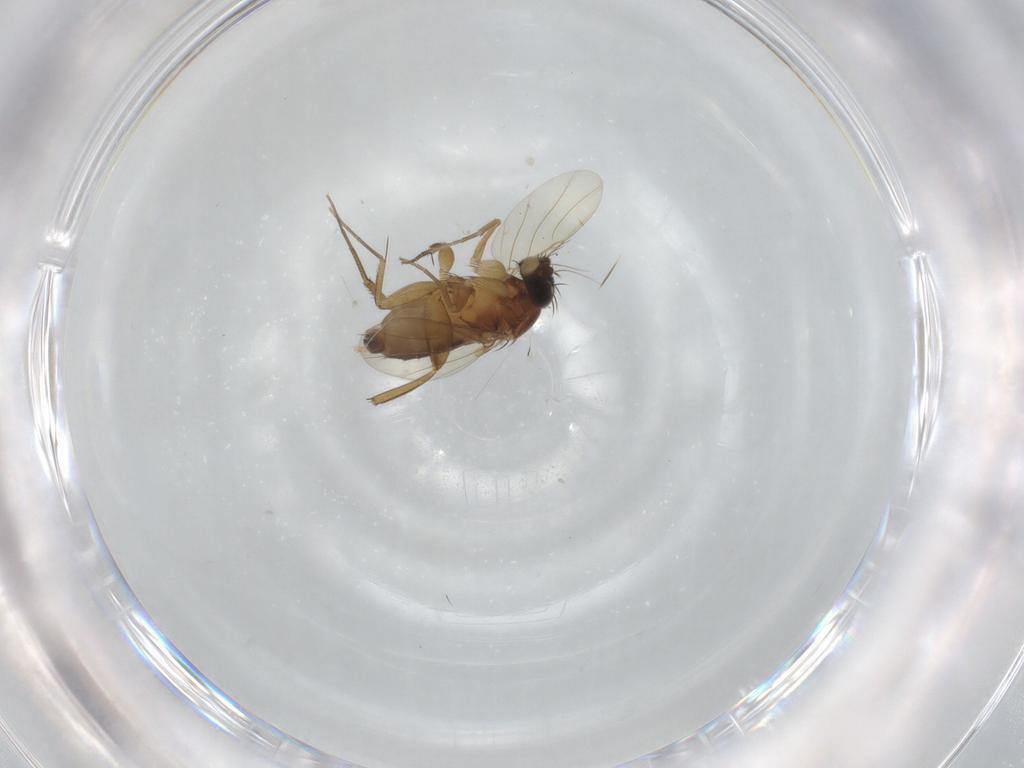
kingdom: Animalia
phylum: Arthropoda
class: Insecta
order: Diptera
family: Phoridae
